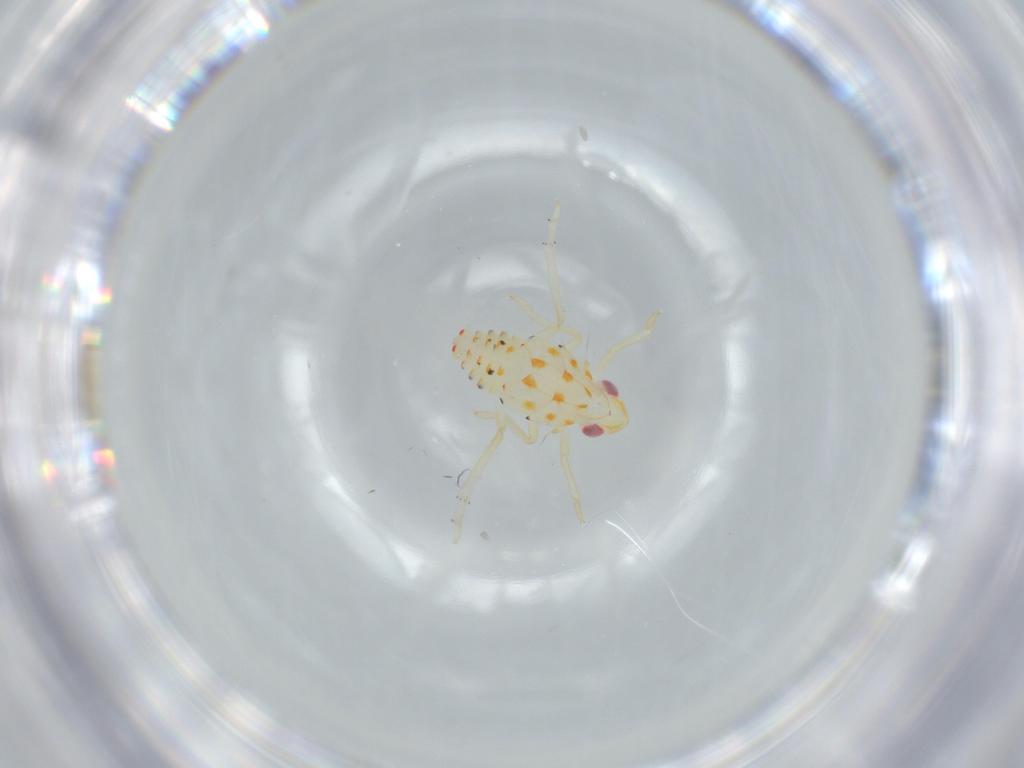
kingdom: Animalia
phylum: Arthropoda
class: Insecta
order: Hemiptera
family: Tropiduchidae
